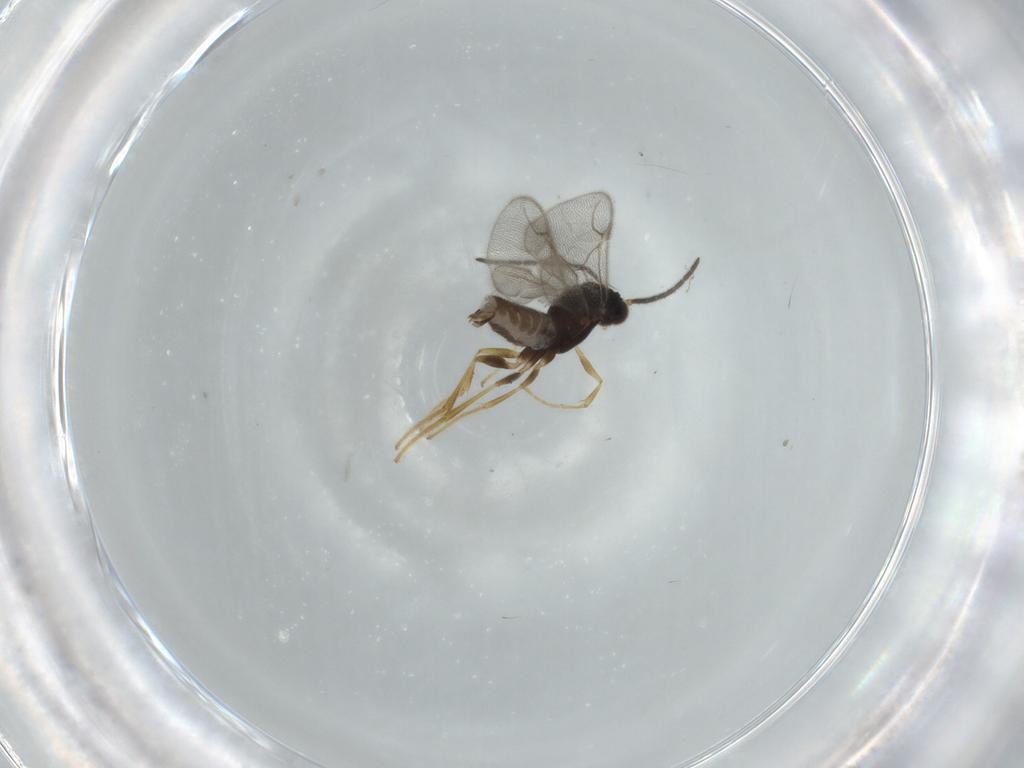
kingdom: Animalia
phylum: Arthropoda
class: Insecta
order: Hymenoptera
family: Dryinidae
